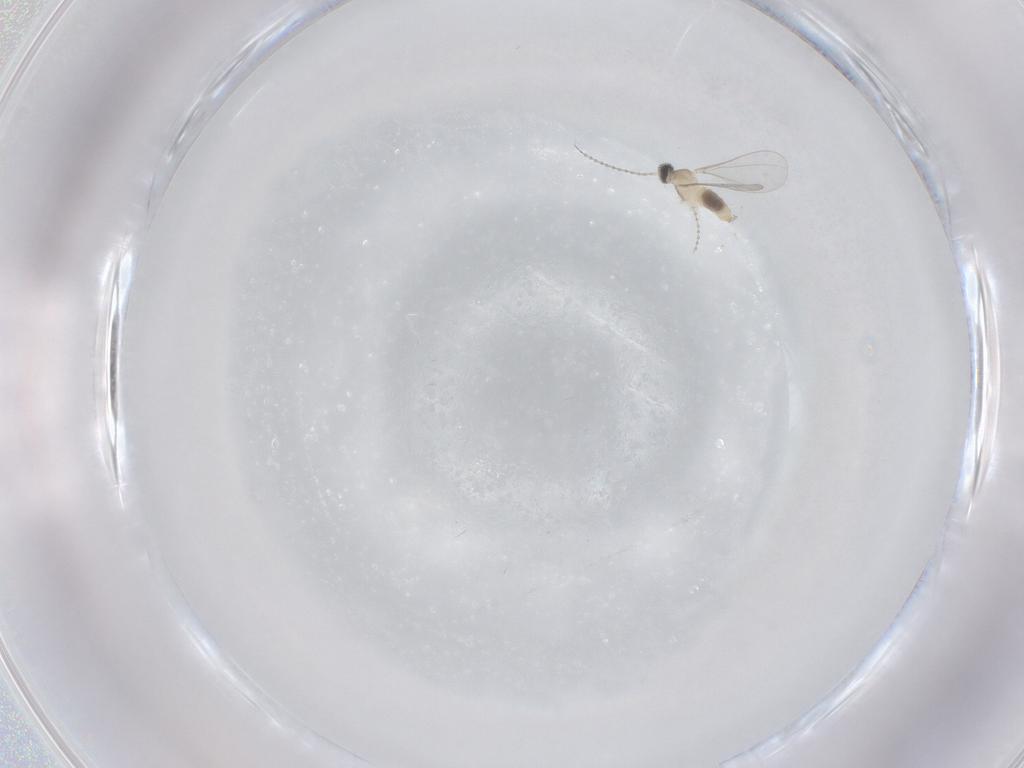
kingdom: Animalia
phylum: Arthropoda
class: Insecta
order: Diptera
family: Cecidomyiidae
